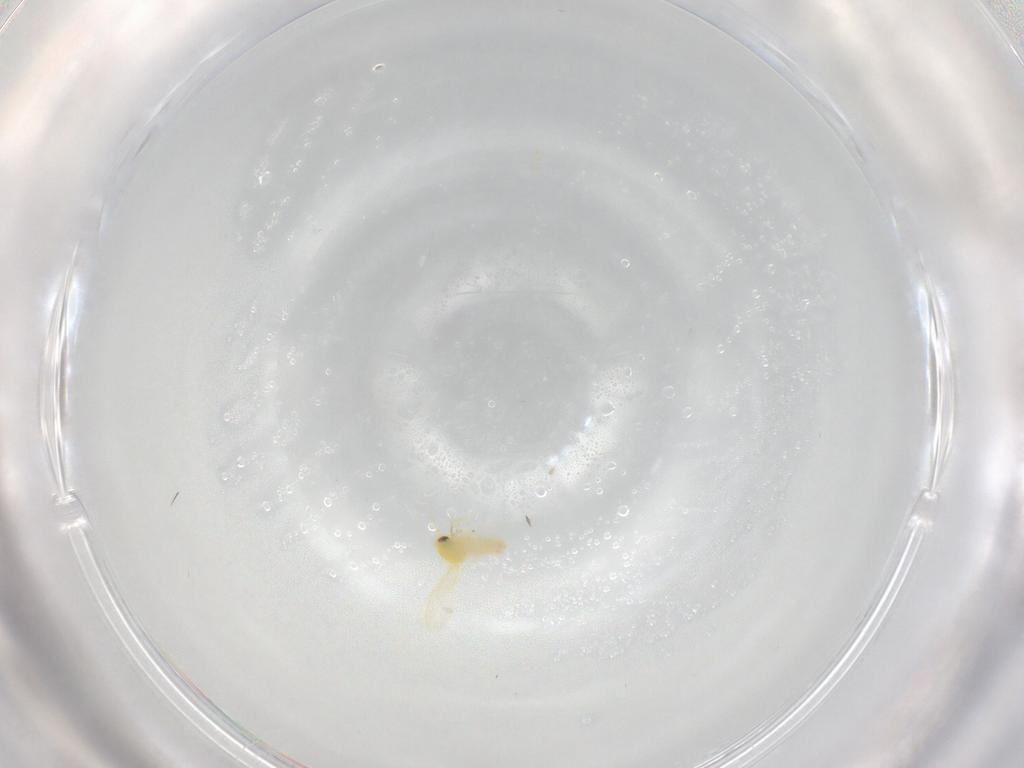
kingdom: Animalia
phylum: Arthropoda
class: Insecta
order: Hemiptera
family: Aleyrodidae
